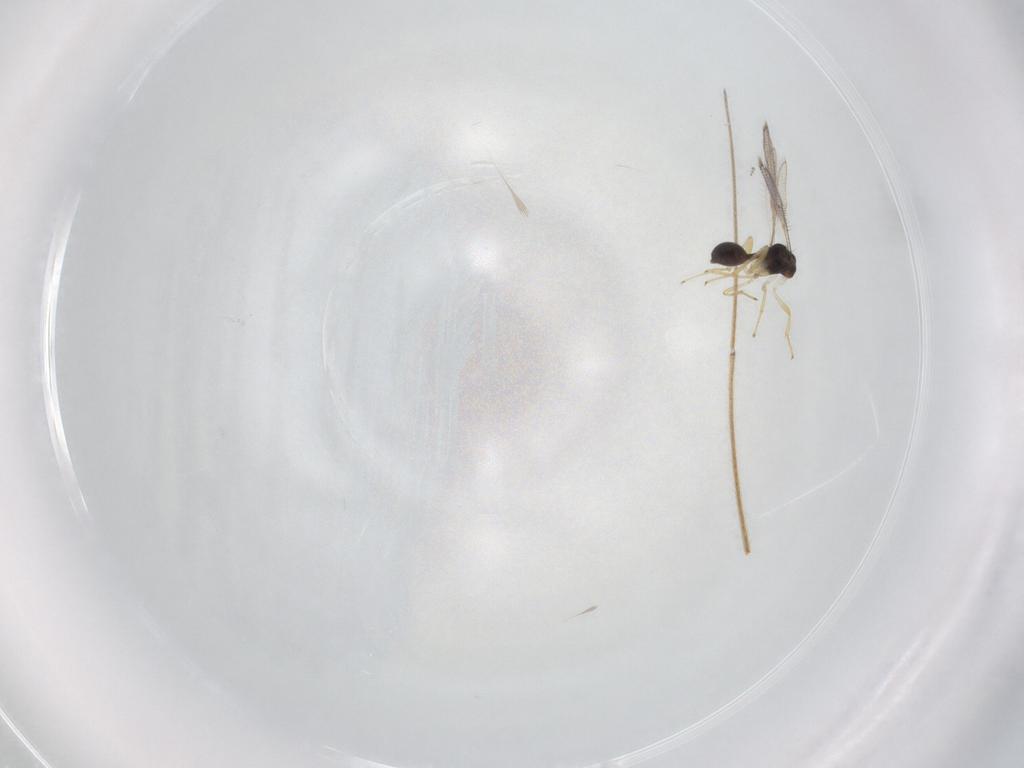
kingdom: Animalia
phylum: Arthropoda
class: Insecta
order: Hymenoptera
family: Diparidae
